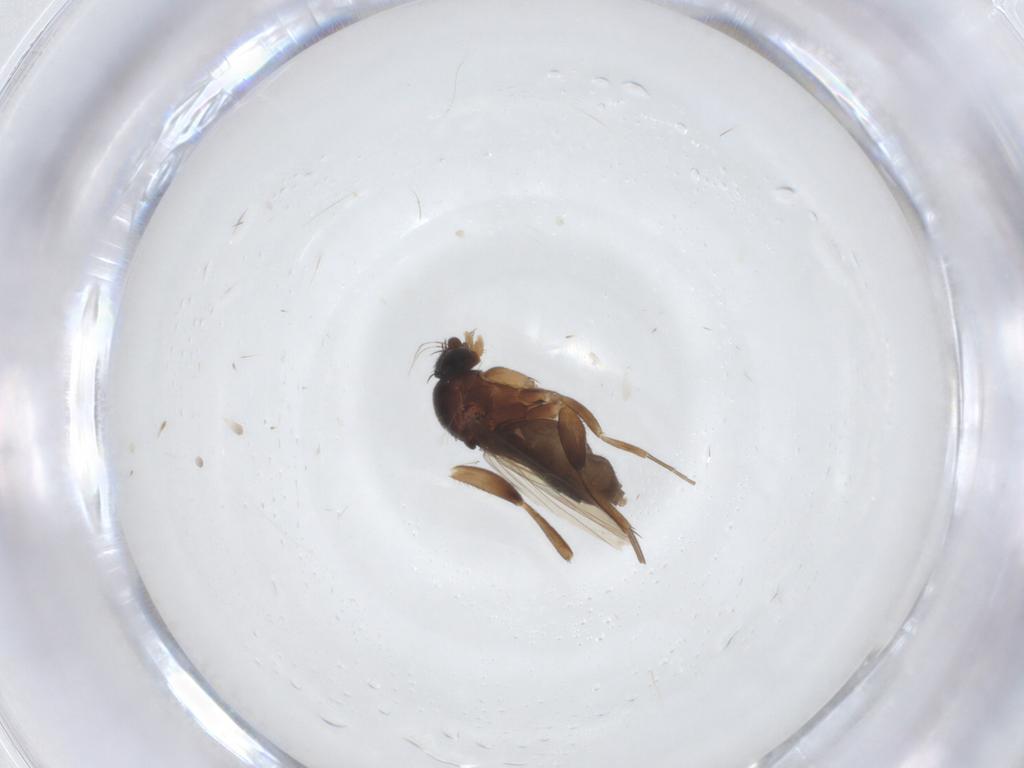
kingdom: Animalia
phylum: Arthropoda
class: Insecta
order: Diptera
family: Phoridae
